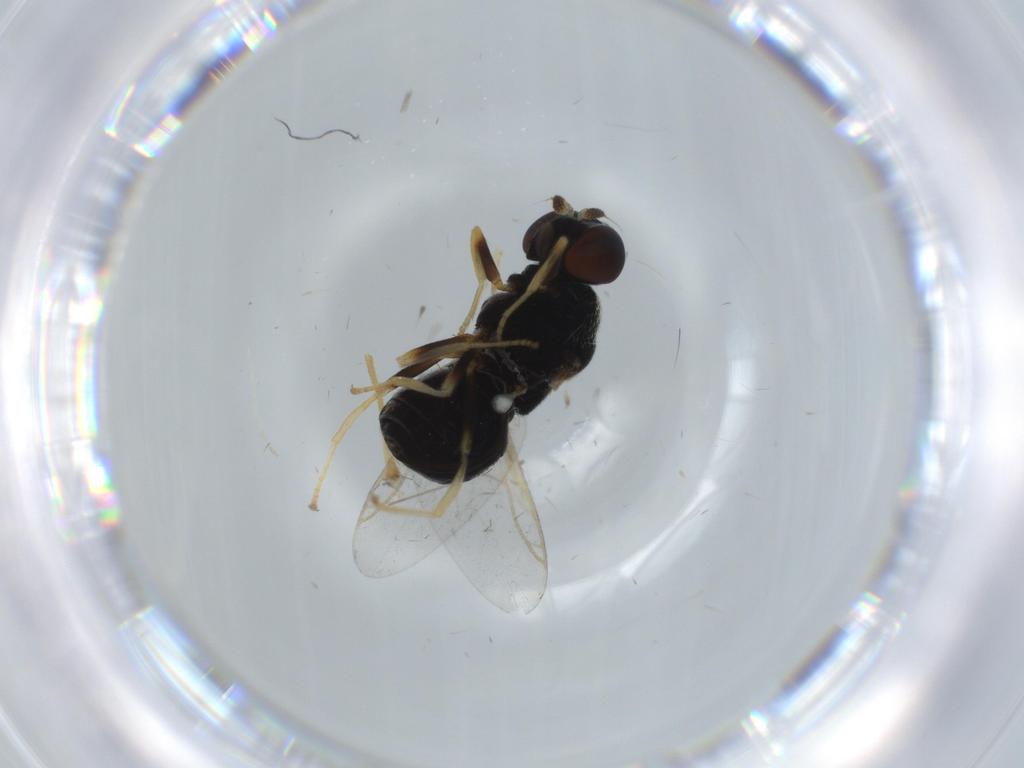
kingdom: Animalia
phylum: Arthropoda
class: Insecta
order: Diptera
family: Stratiomyidae
